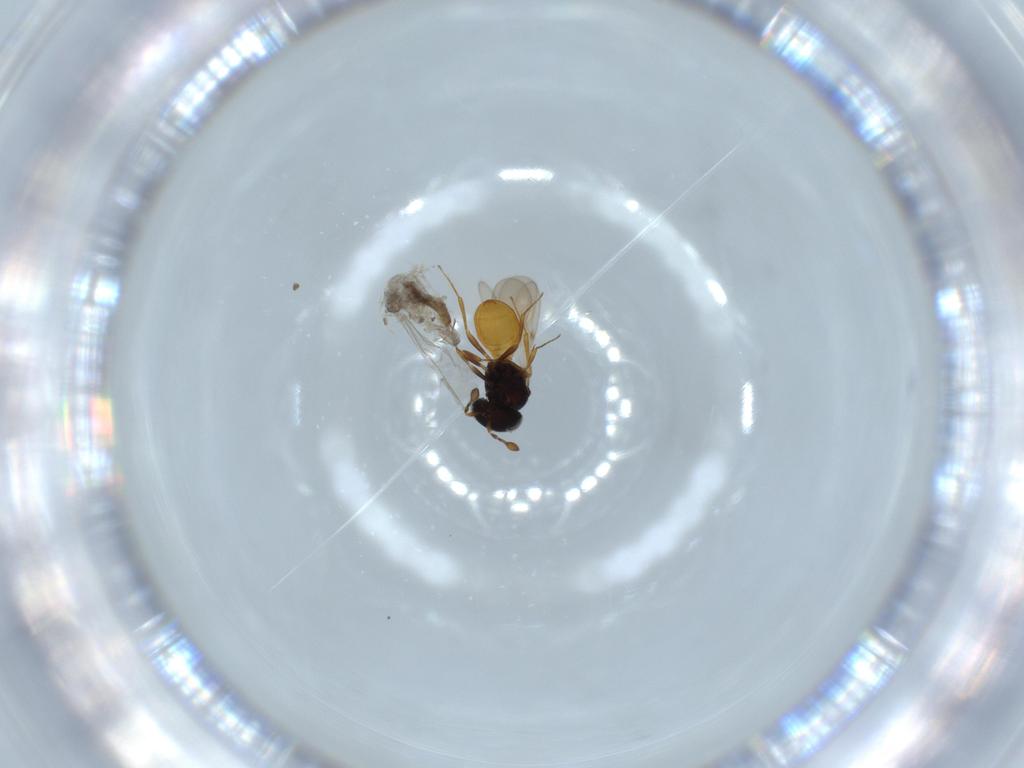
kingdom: Animalia
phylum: Arthropoda
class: Insecta
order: Hymenoptera
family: Scelionidae
